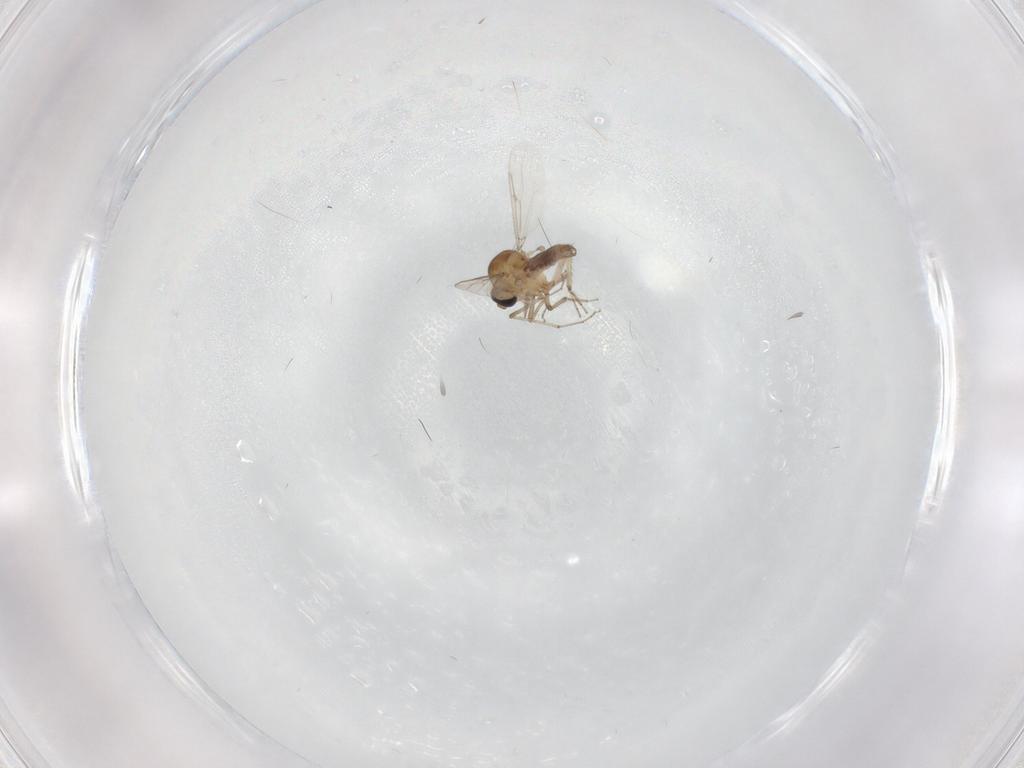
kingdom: Animalia
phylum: Arthropoda
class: Insecta
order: Diptera
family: Ceratopogonidae
